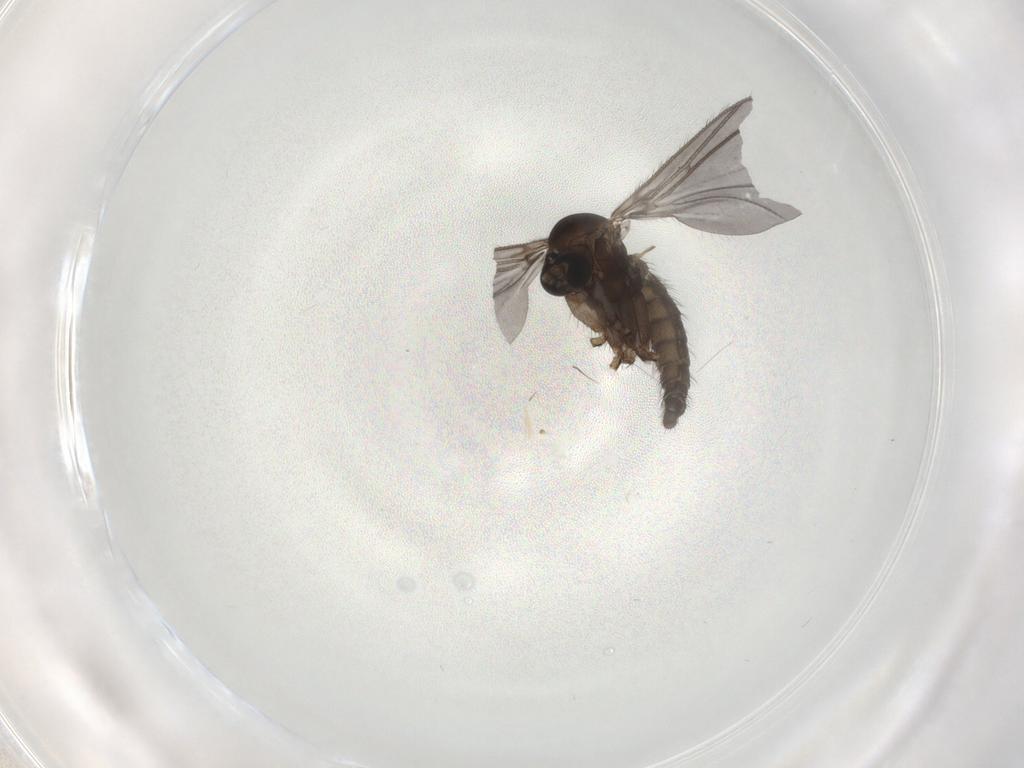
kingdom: Animalia
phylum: Arthropoda
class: Insecta
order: Diptera
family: Sciaridae
